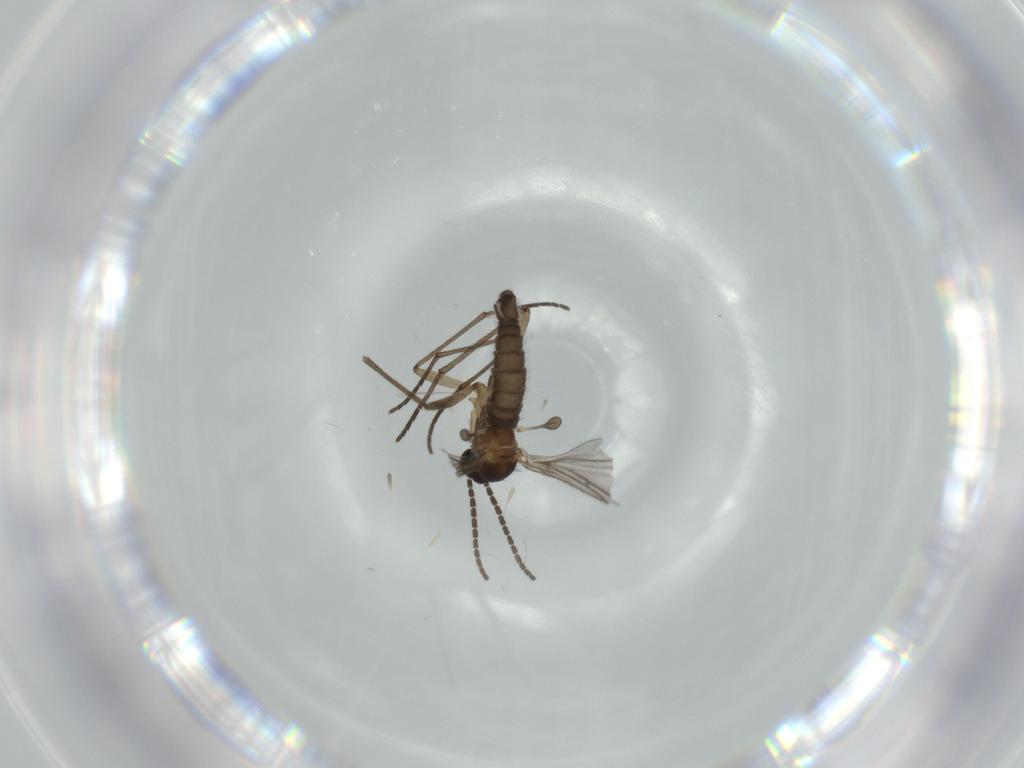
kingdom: Animalia
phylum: Arthropoda
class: Insecta
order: Diptera
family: Sciaridae
